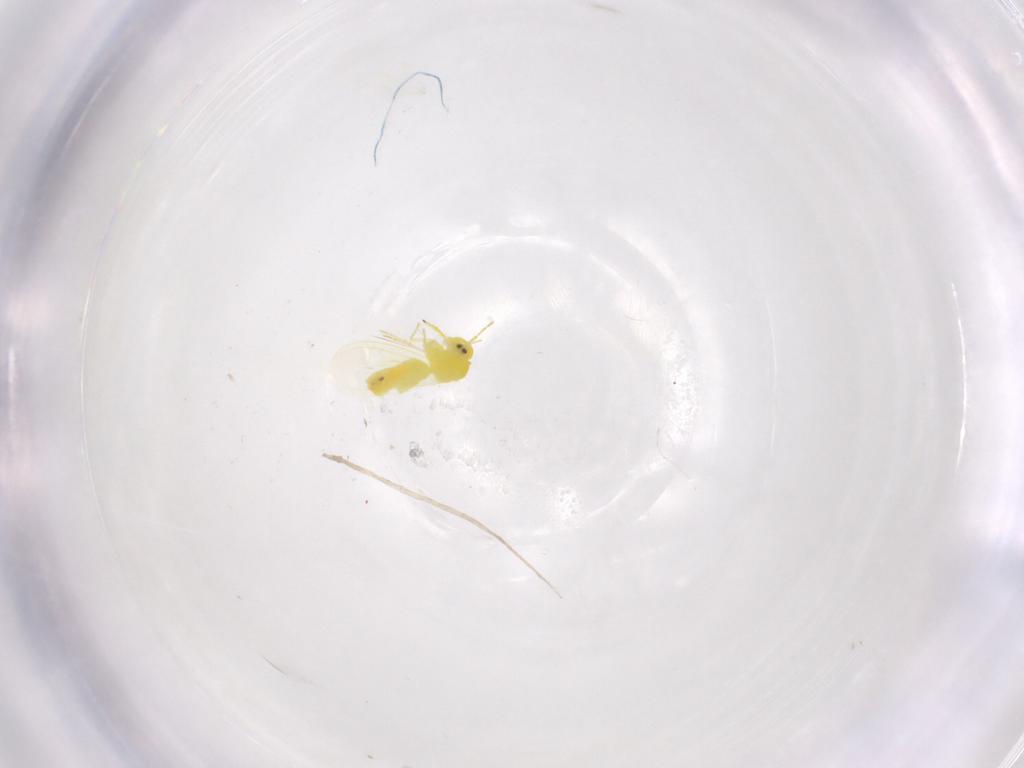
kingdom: Animalia
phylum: Arthropoda
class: Insecta
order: Hemiptera
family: Aleyrodidae
